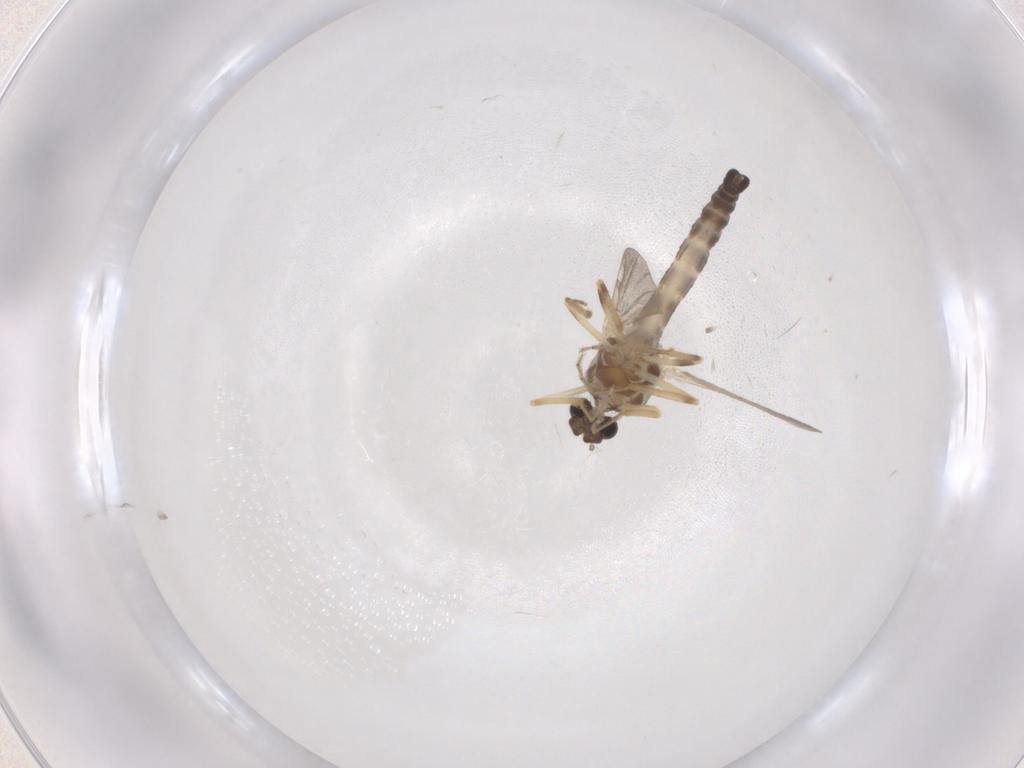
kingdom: Animalia
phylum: Arthropoda
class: Insecta
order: Diptera
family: Ceratopogonidae
